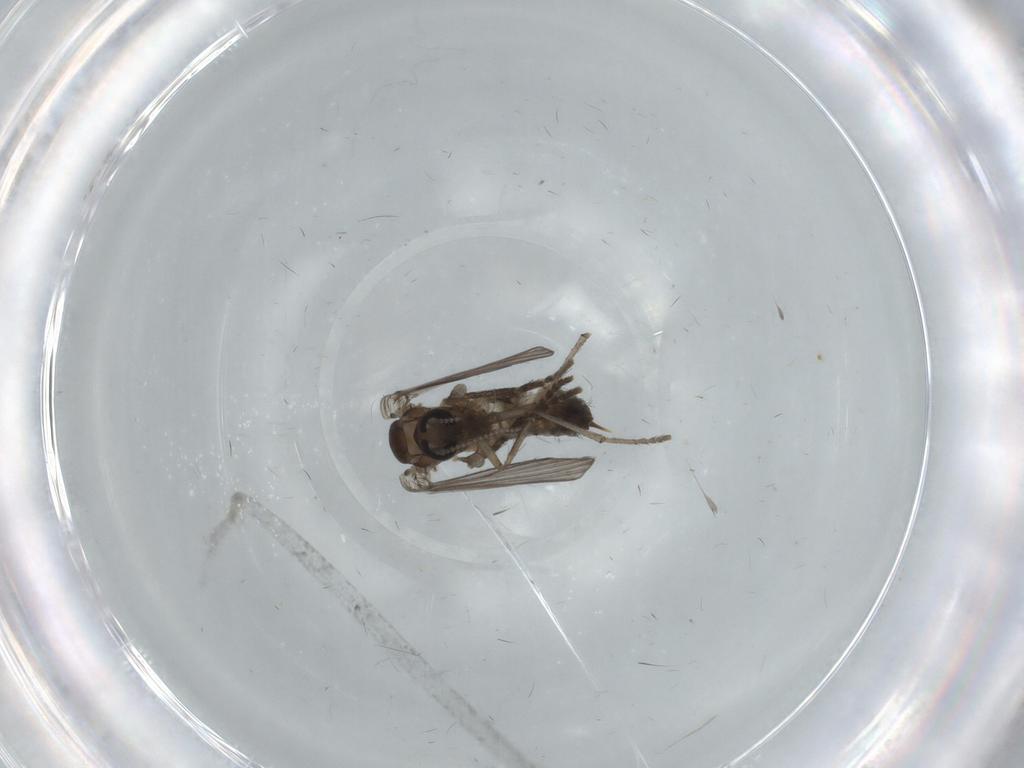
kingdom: Animalia
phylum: Arthropoda
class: Insecta
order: Diptera
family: Psychodidae
